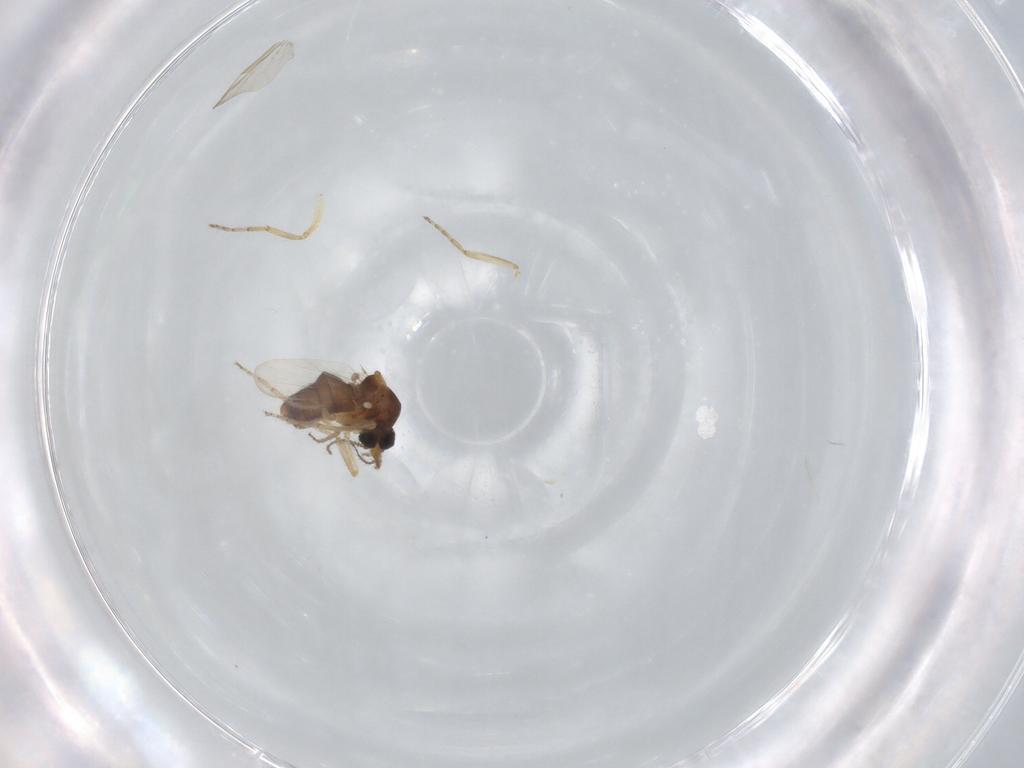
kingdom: Animalia
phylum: Arthropoda
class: Insecta
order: Diptera
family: Ceratopogonidae
